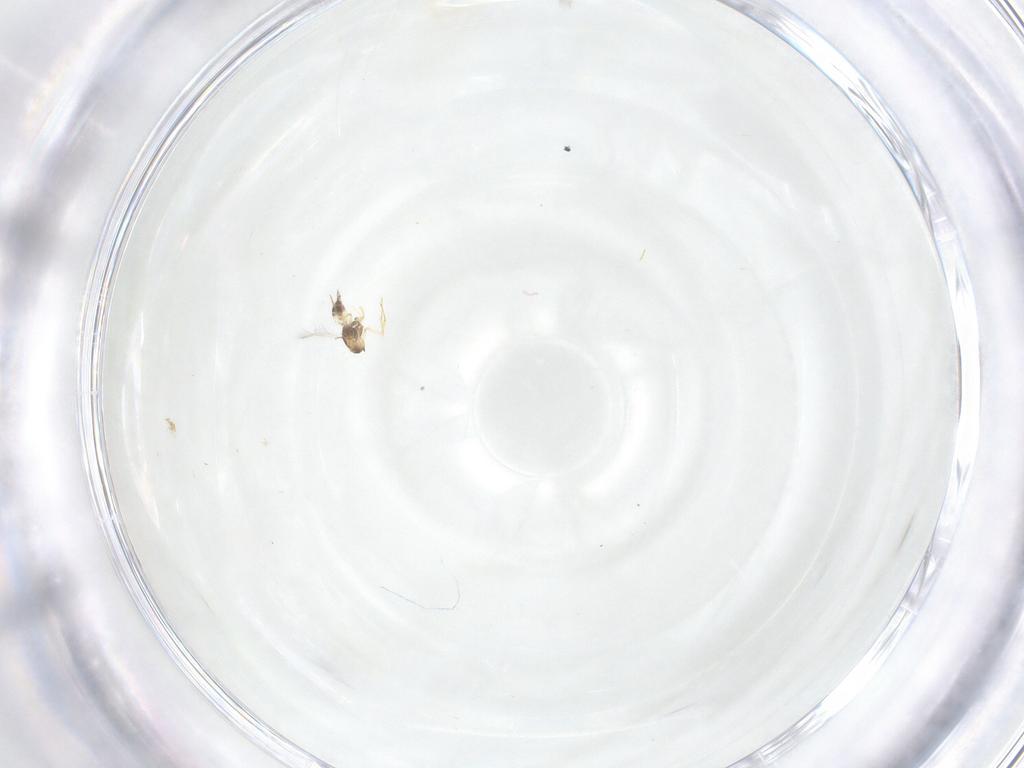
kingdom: Animalia
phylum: Arthropoda
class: Insecta
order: Hymenoptera
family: Mymaridae
